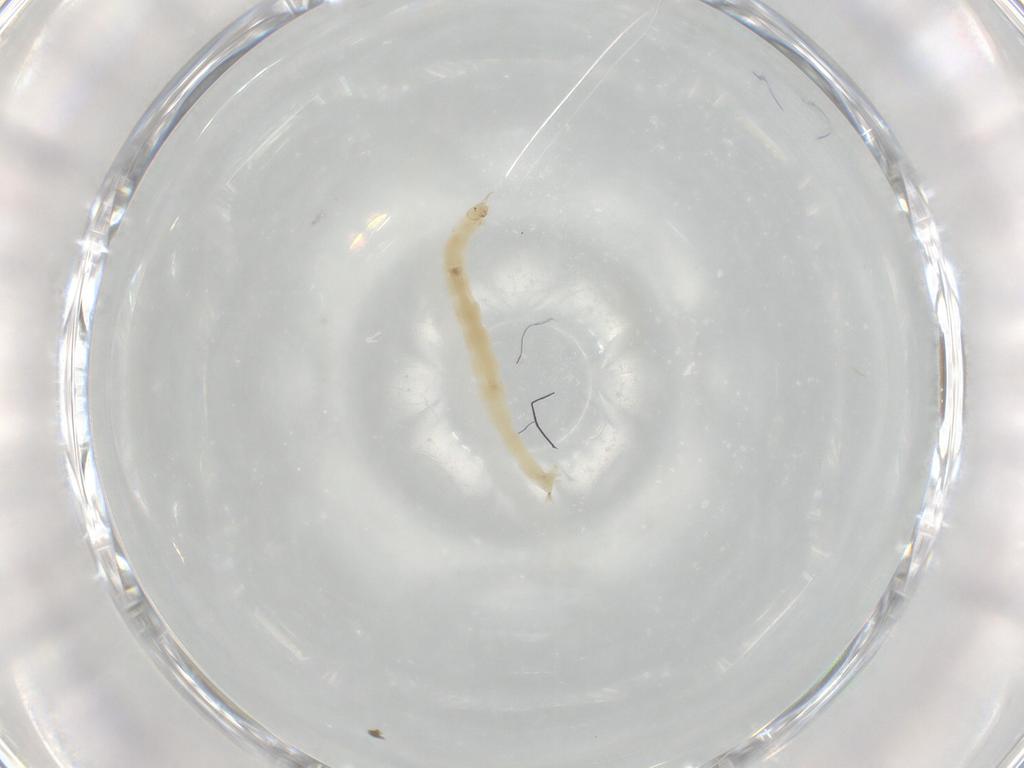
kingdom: Animalia
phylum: Arthropoda
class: Insecta
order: Diptera
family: Chironomidae
